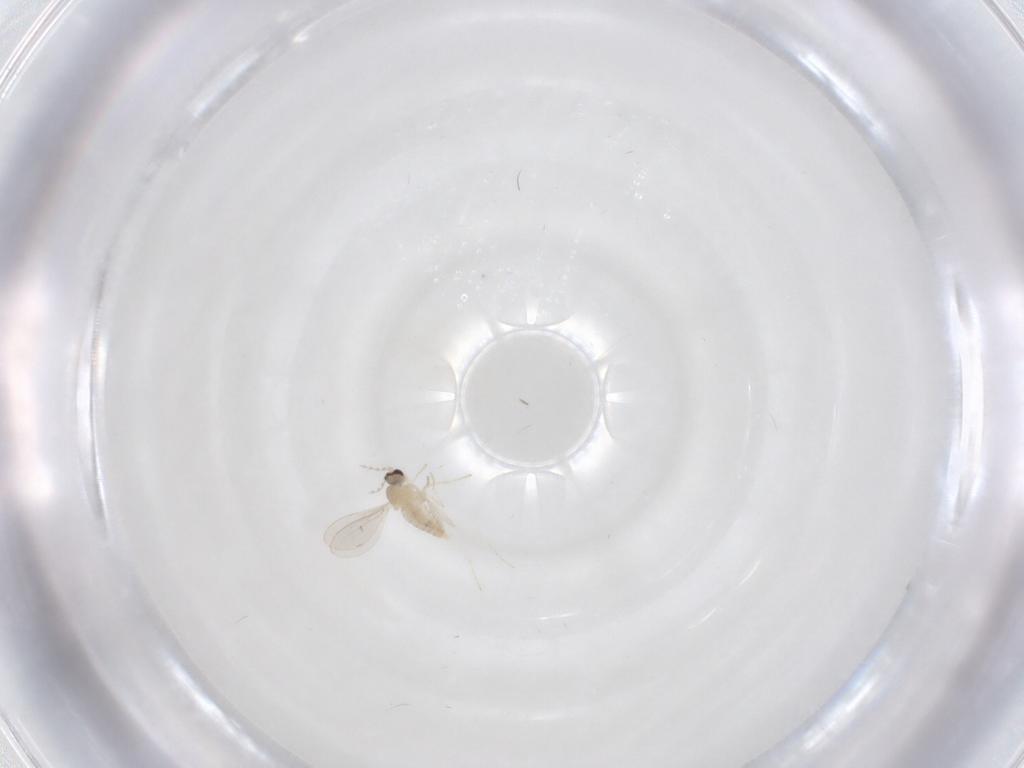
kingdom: Animalia
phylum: Arthropoda
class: Insecta
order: Diptera
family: Cecidomyiidae
